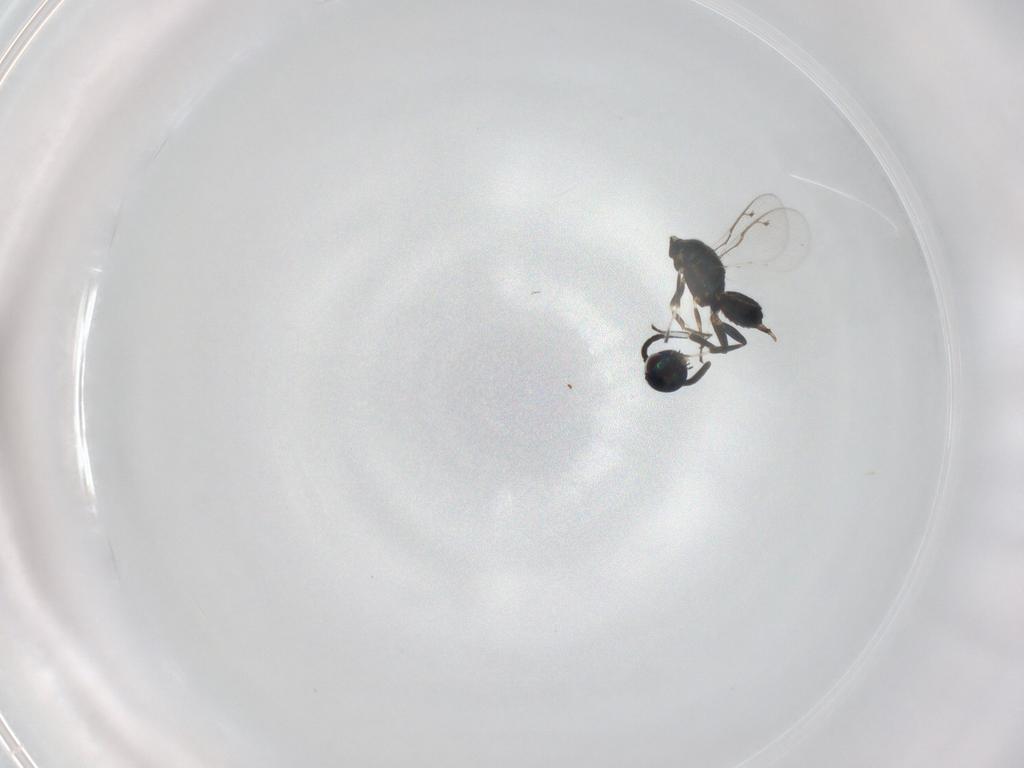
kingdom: Animalia
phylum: Arthropoda
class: Insecta
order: Hymenoptera
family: Eupelmidae
